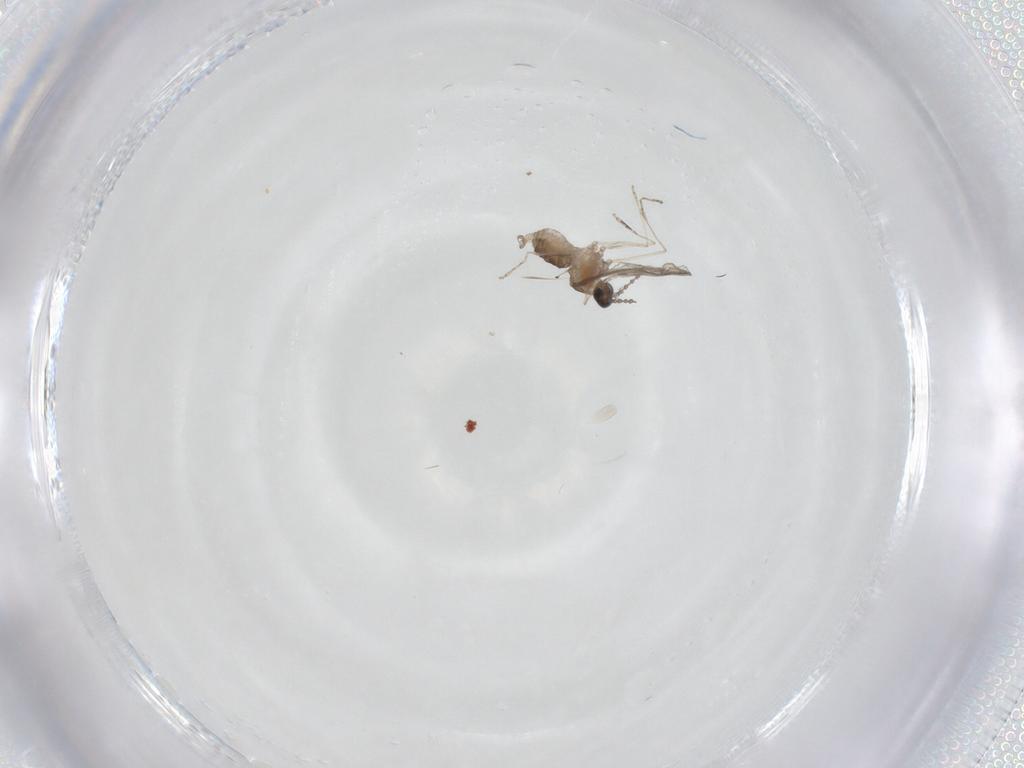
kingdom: Animalia
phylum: Arthropoda
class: Insecta
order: Diptera
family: Cecidomyiidae
